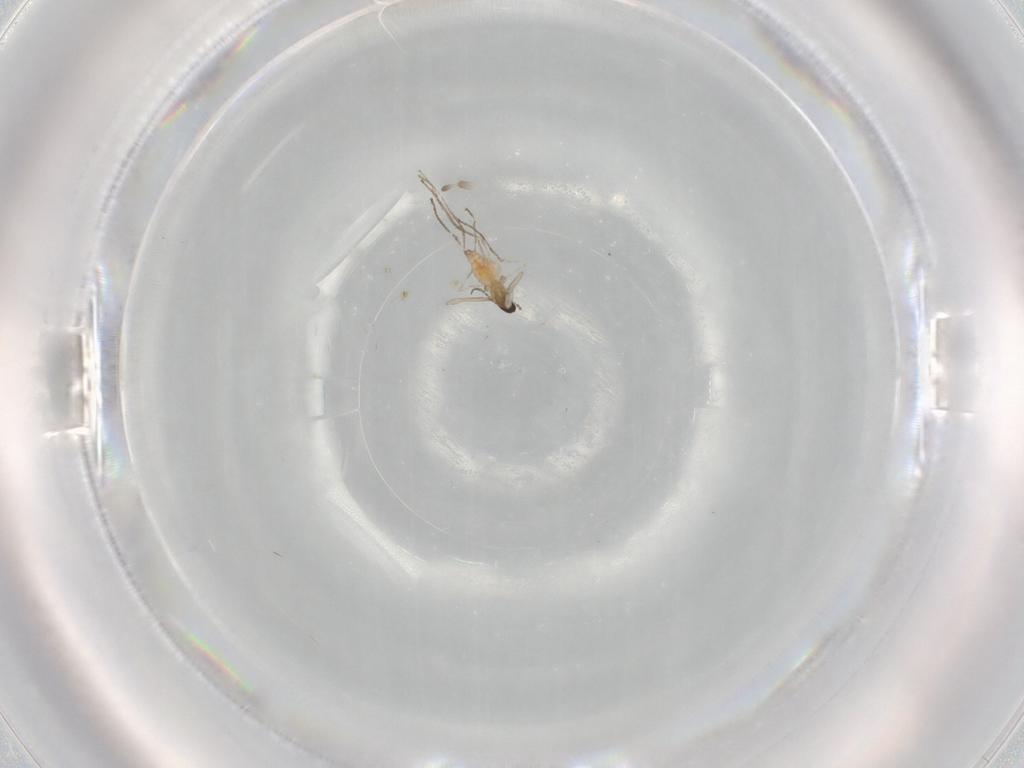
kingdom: Animalia
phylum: Arthropoda
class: Insecta
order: Diptera
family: Cecidomyiidae
